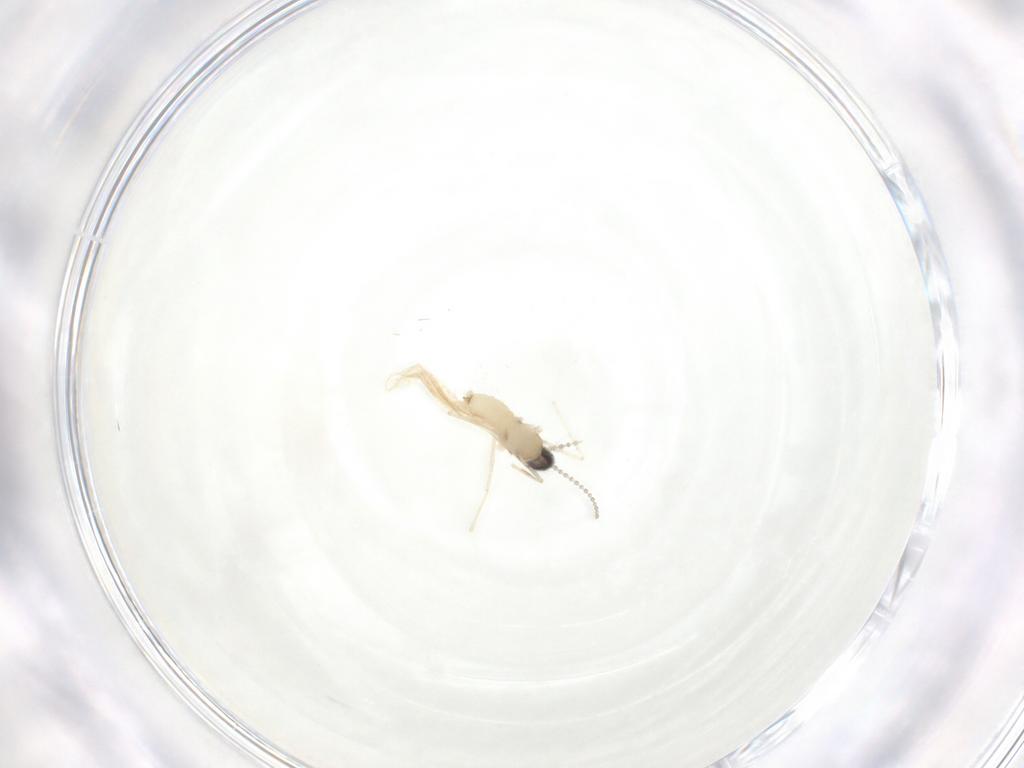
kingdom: Animalia
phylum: Arthropoda
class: Insecta
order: Diptera
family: Cecidomyiidae
